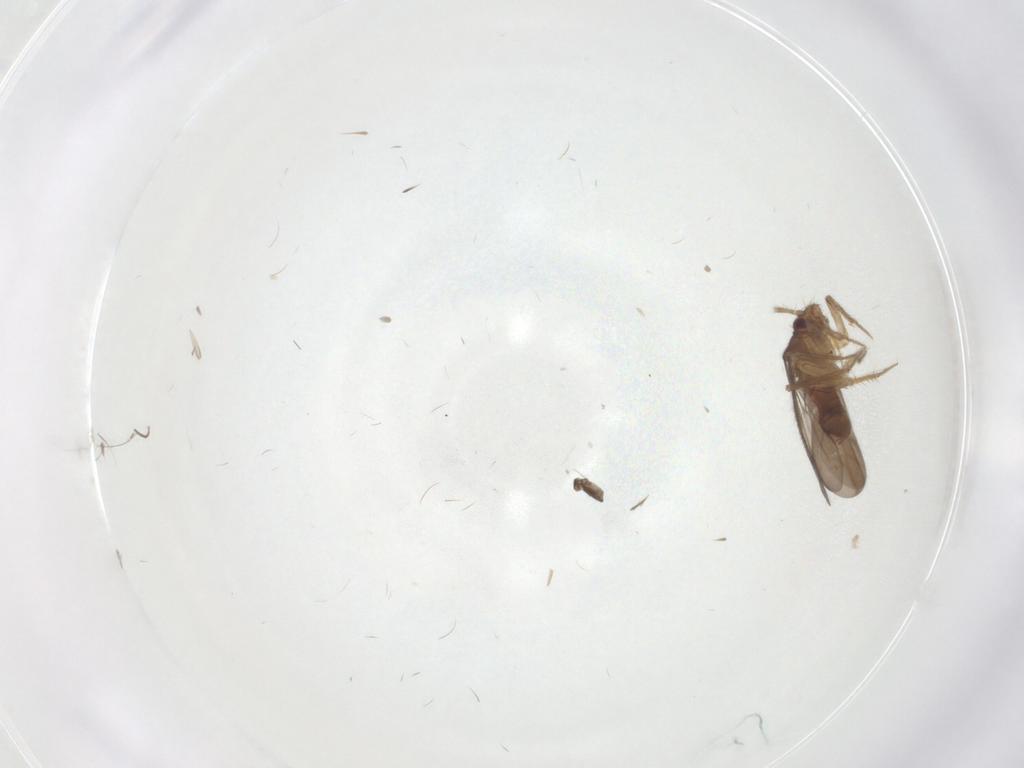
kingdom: Animalia
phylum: Arthropoda
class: Insecta
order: Hemiptera
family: Ceratocombidae
